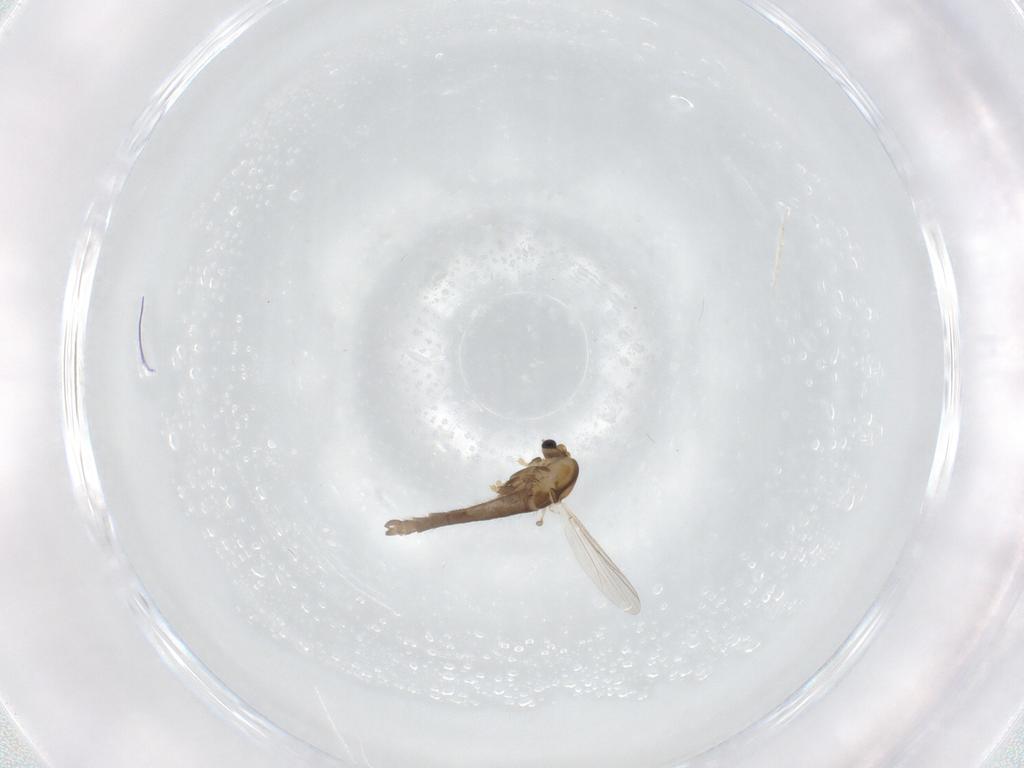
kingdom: Animalia
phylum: Arthropoda
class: Insecta
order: Diptera
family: Chironomidae
